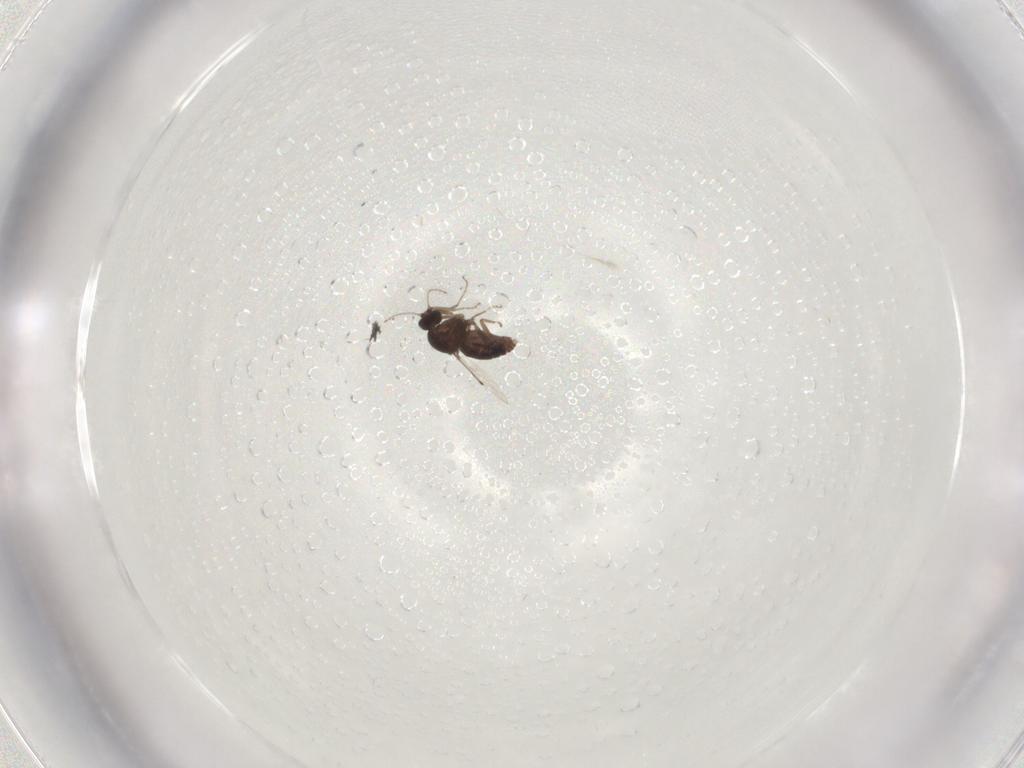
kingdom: Animalia
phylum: Arthropoda
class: Insecta
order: Diptera
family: Ceratopogonidae
